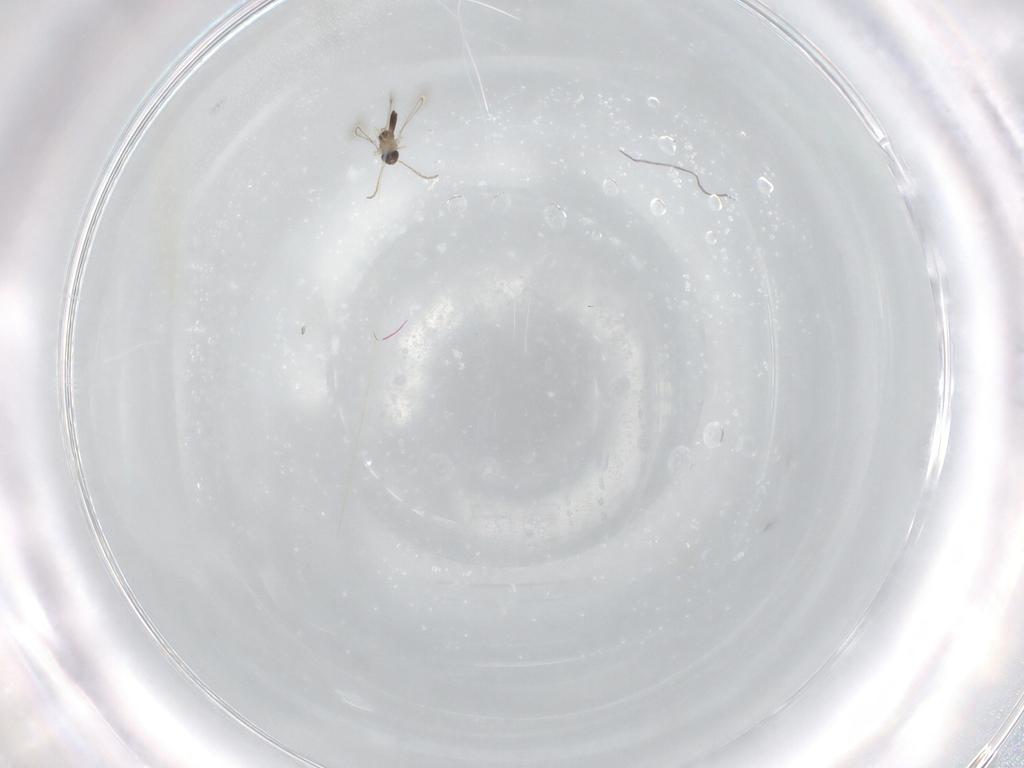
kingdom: Animalia
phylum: Arthropoda
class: Insecta
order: Hymenoptera
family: Mymaridae
